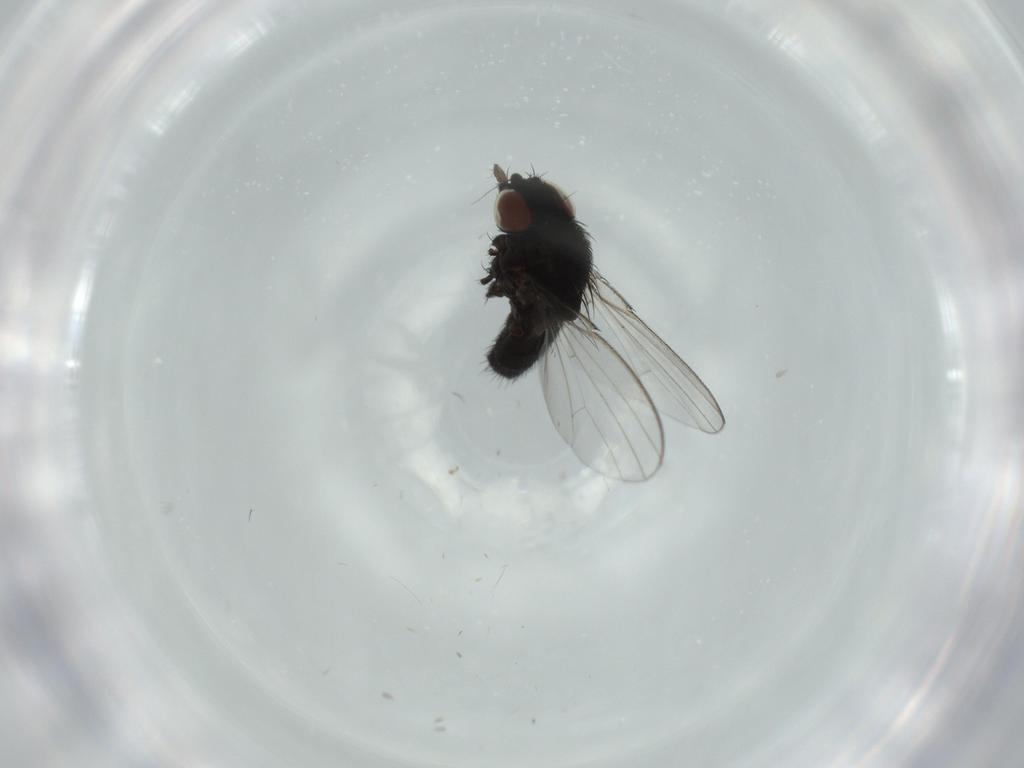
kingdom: Animalia
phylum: Arthropoda
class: Insecta
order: Diptera
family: Milichiidae
